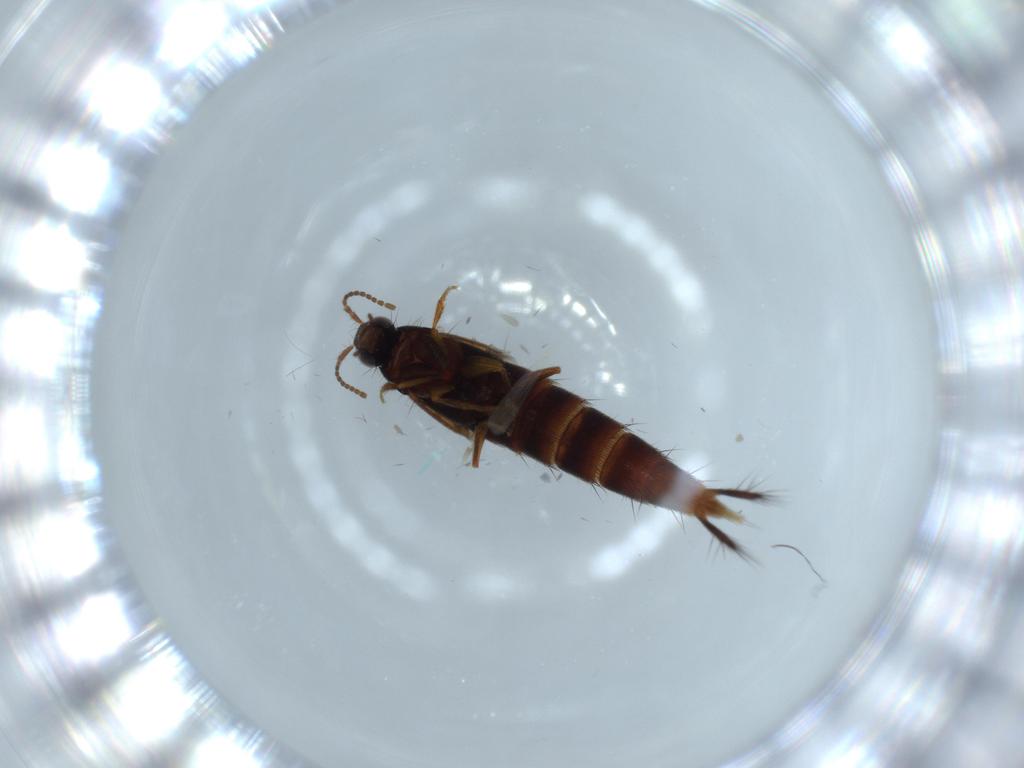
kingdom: Animalia
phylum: Arthropoda
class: Insecta
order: Coleoptera
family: Staphylinidae
